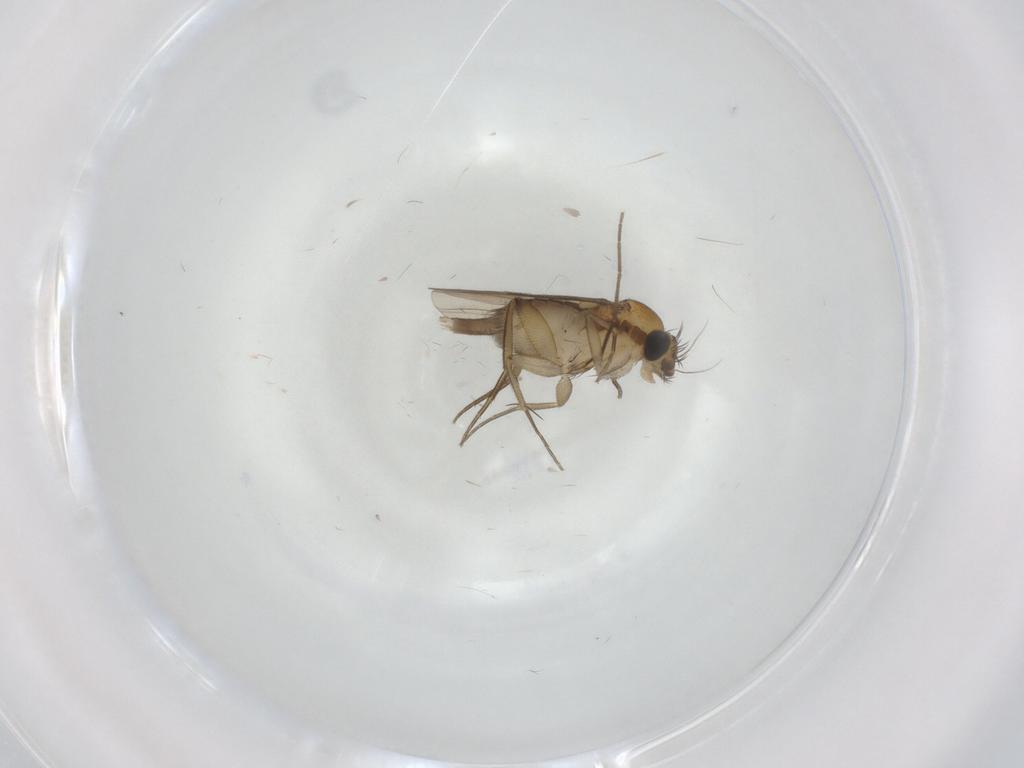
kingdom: Animalia
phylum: Arthropoda
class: Insecta
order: Diptera
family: Phoridae
